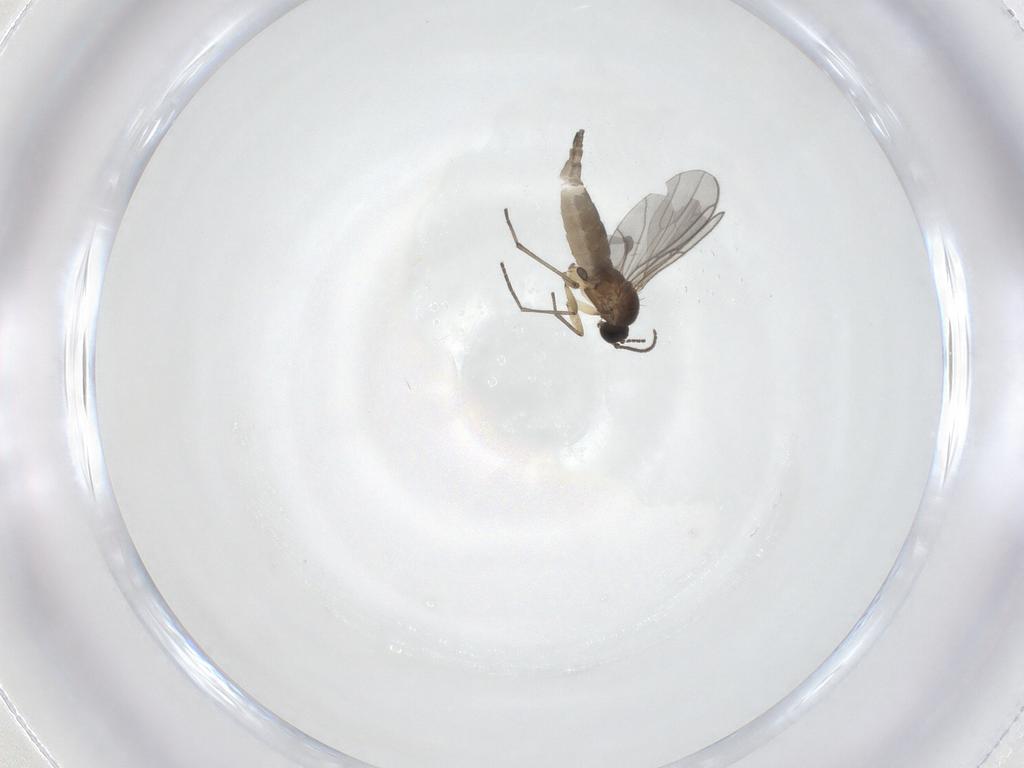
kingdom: Animalia
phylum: Arthropoda
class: Insecta
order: Diptera
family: Sciaridae
